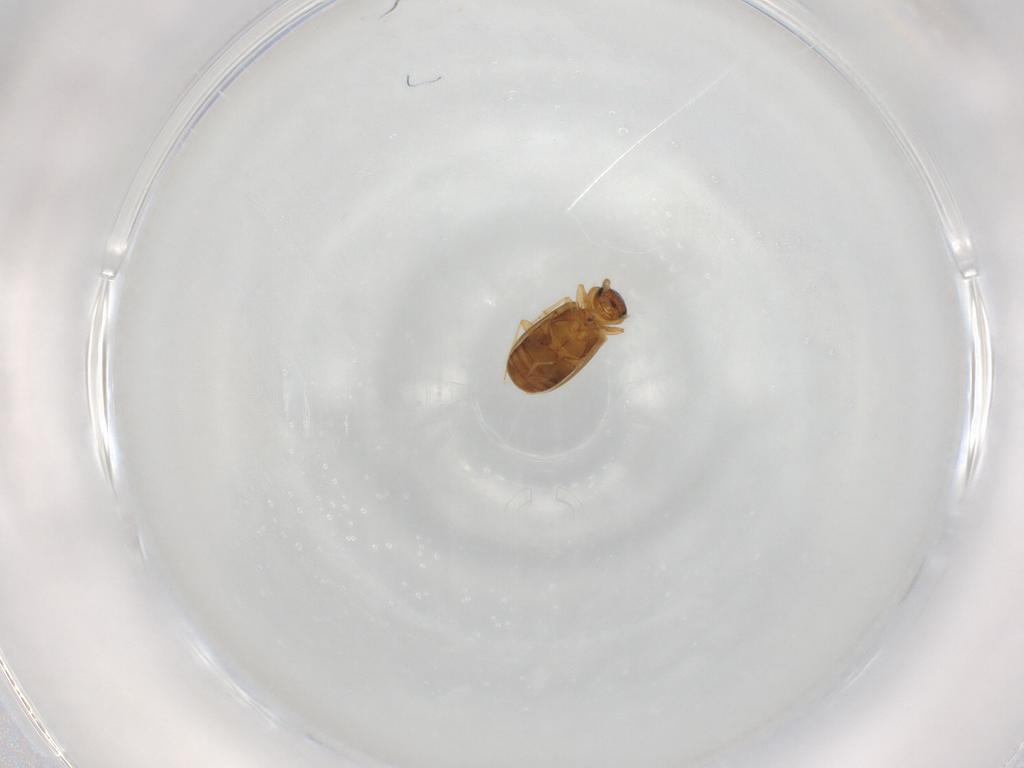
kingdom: Animalia
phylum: Arthropoda
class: Insecta
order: Coleoptera
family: Carabidae
